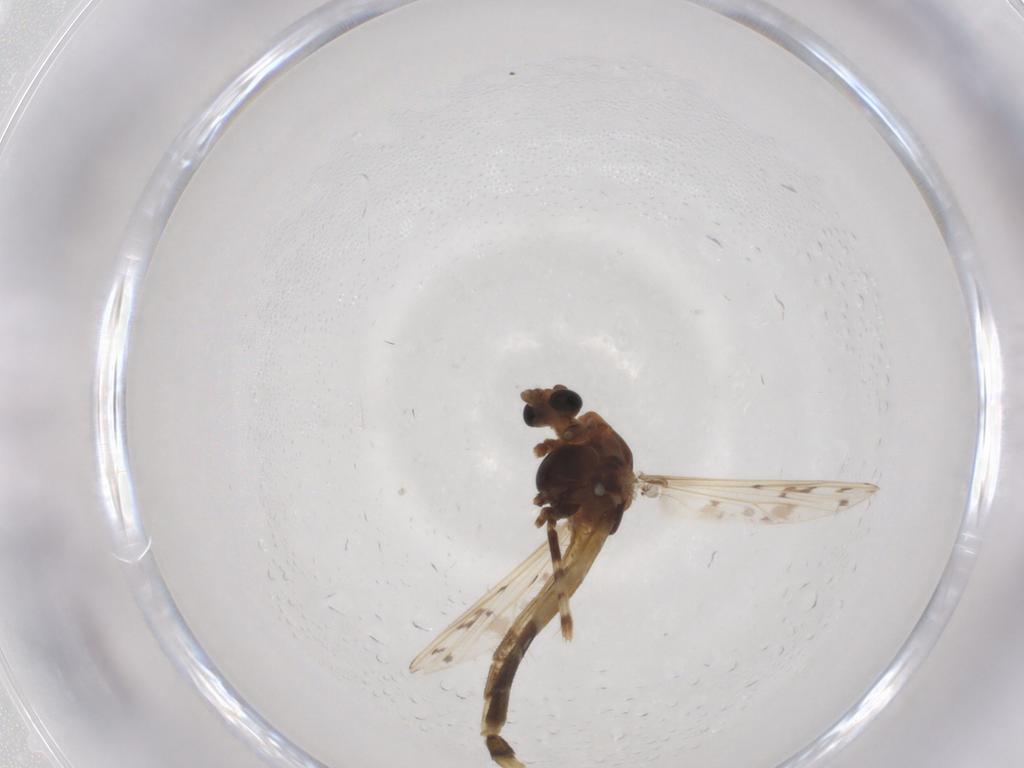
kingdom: Animalia
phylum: Arthropoda
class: Insecta
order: Diptera
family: Chironomidae
